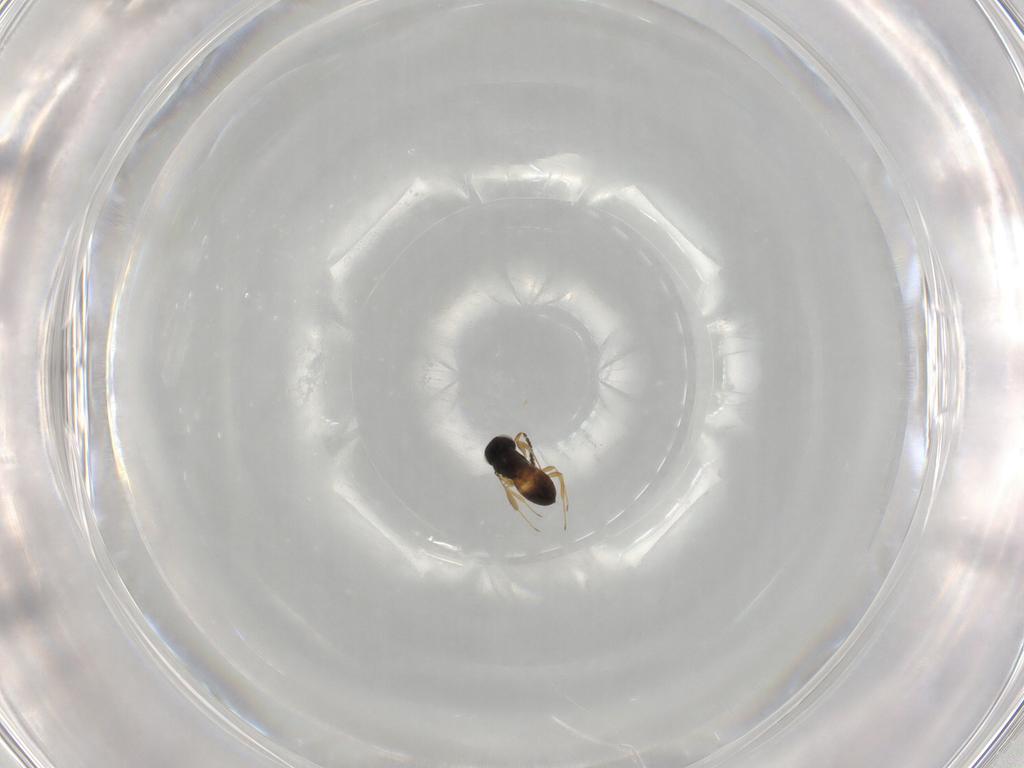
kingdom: Animalia
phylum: Arthropoda
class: Insecta
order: Hymenoptera
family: Scelionidae
